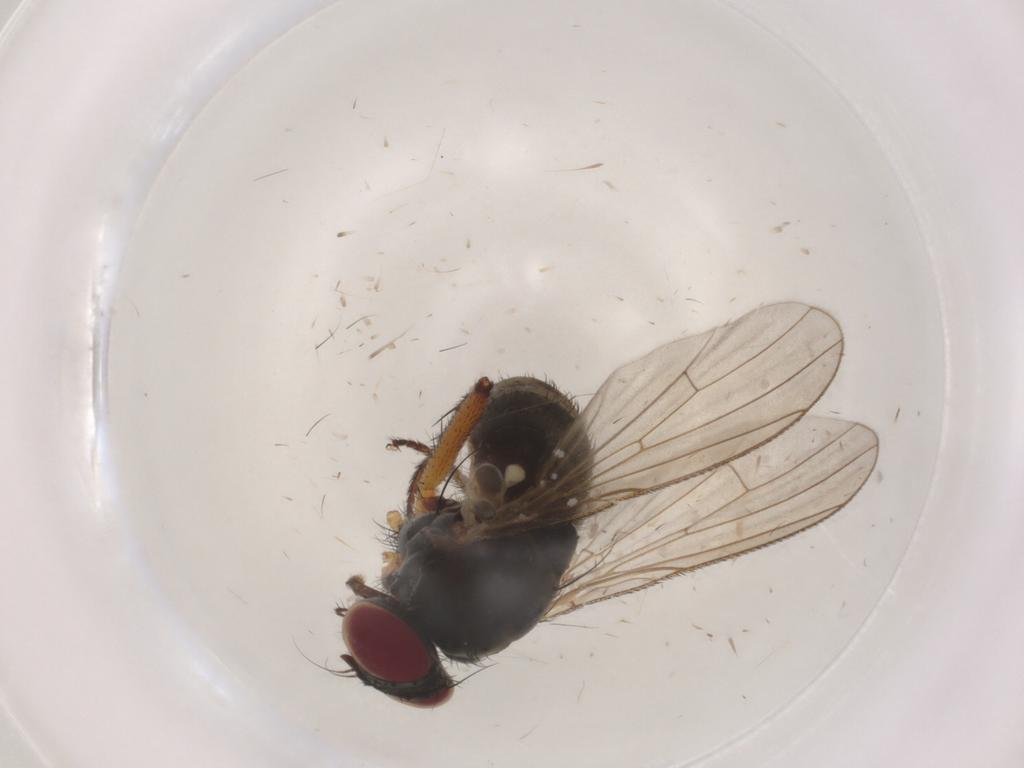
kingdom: Animalia
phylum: Arthropoda
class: Insecta
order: Diptera
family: Muscidae
